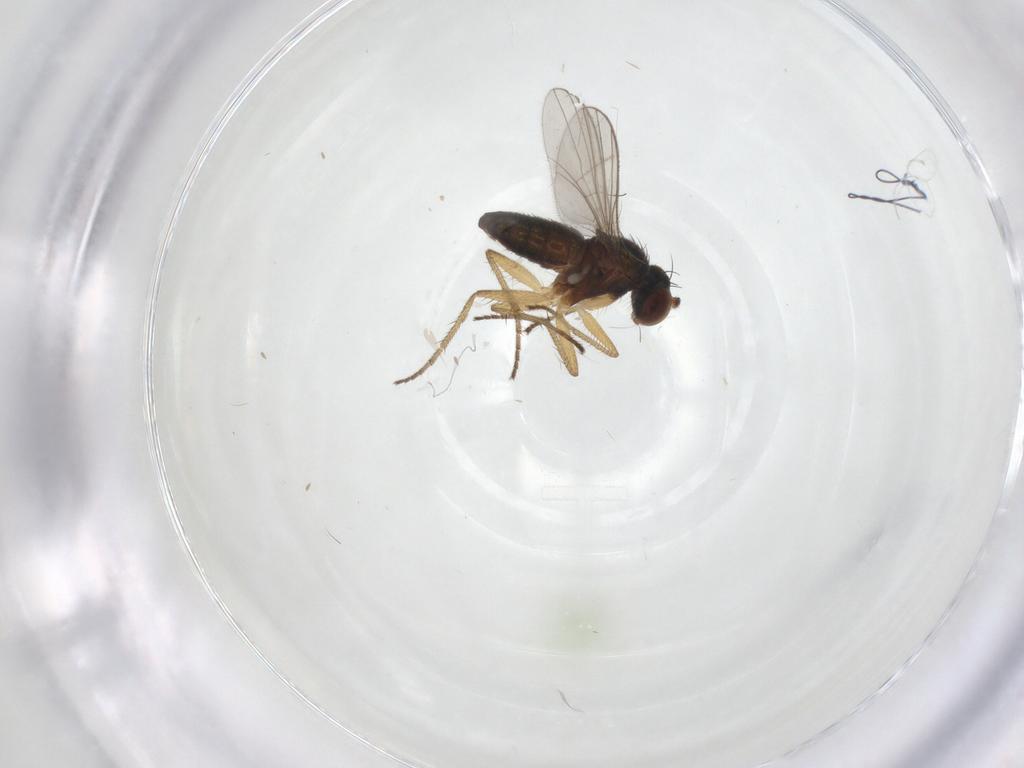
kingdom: Animalia
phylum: Arthropoda
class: Insecta
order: Diptera
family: Dolichopodidae
